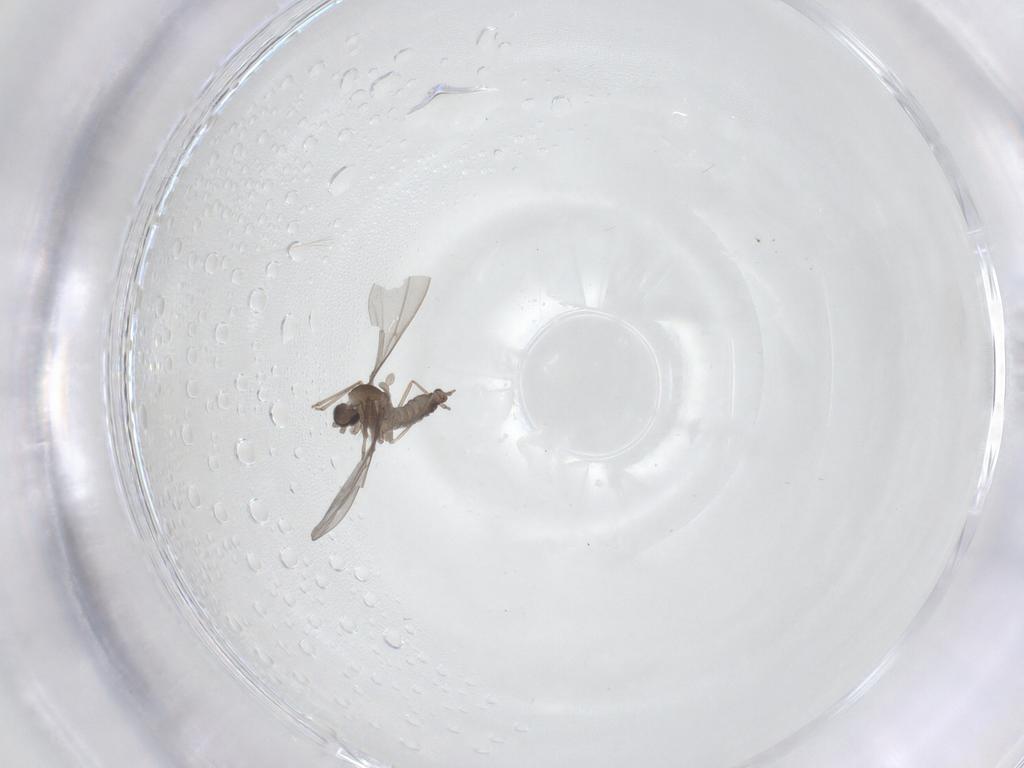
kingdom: Animalia
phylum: Arthropoda
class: Insecta
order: Diptera
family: Cecidomyiidae
